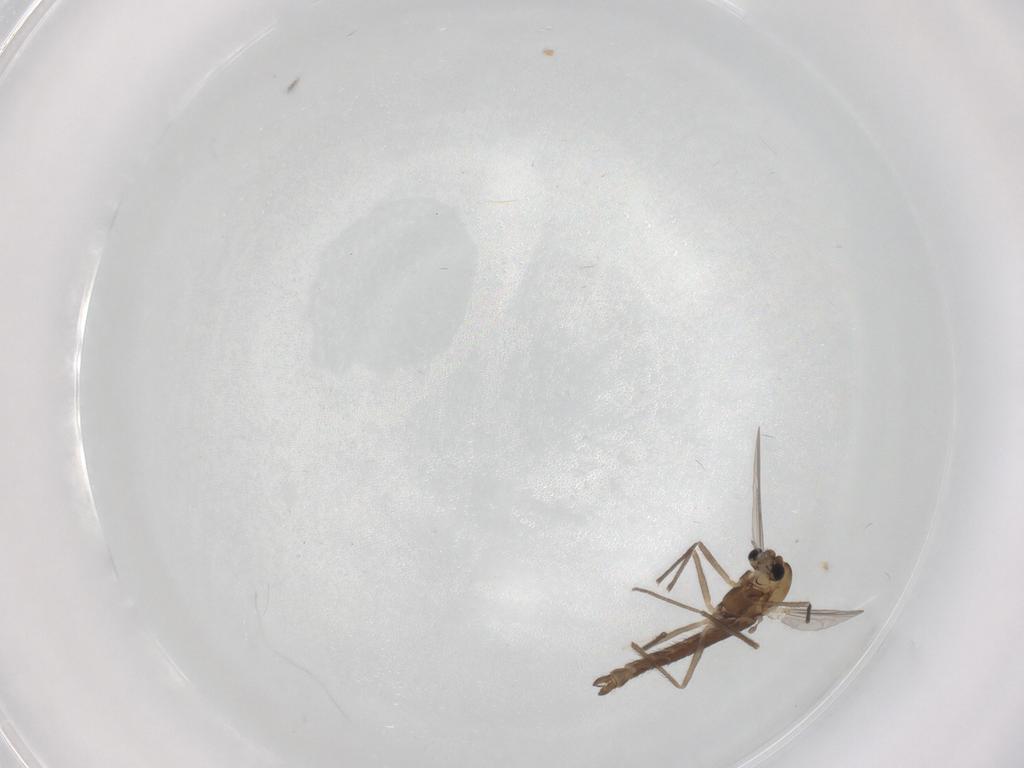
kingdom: Animalia
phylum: Arthropoda
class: Insecta
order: Diptera
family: Chironomidae
